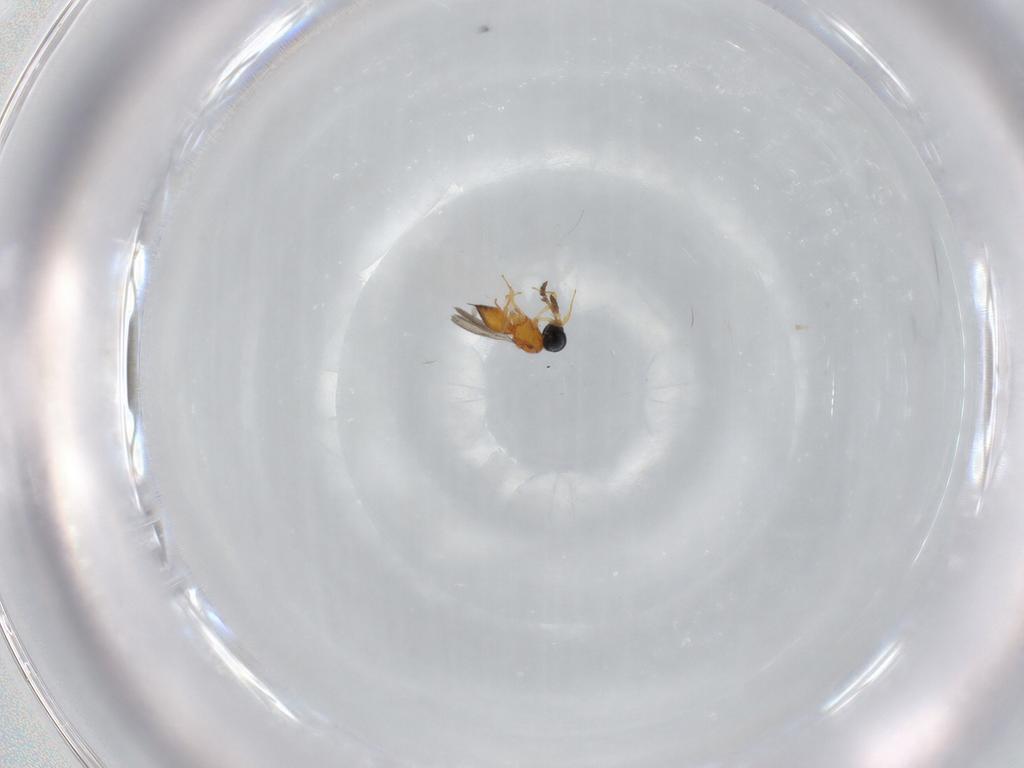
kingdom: Animalia
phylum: Arthropoda
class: Insecta
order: Hymenoptera
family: Scelionidae
